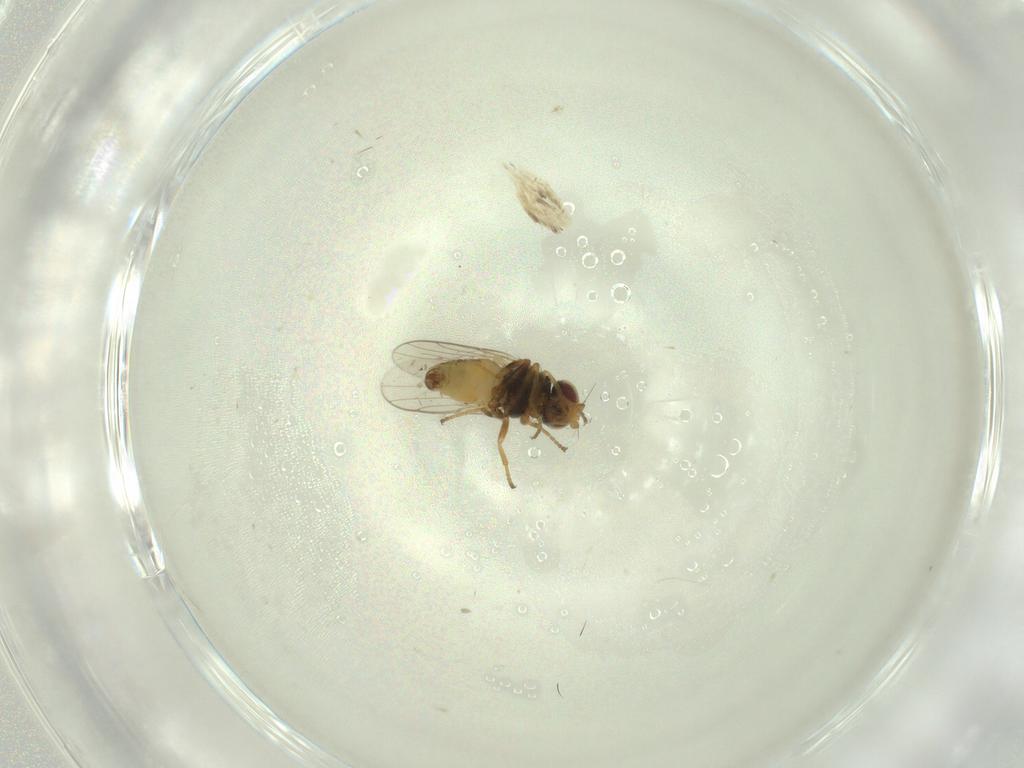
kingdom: Animalia
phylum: Arthropoda
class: Insecta
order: Diptera
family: Chloropidae
